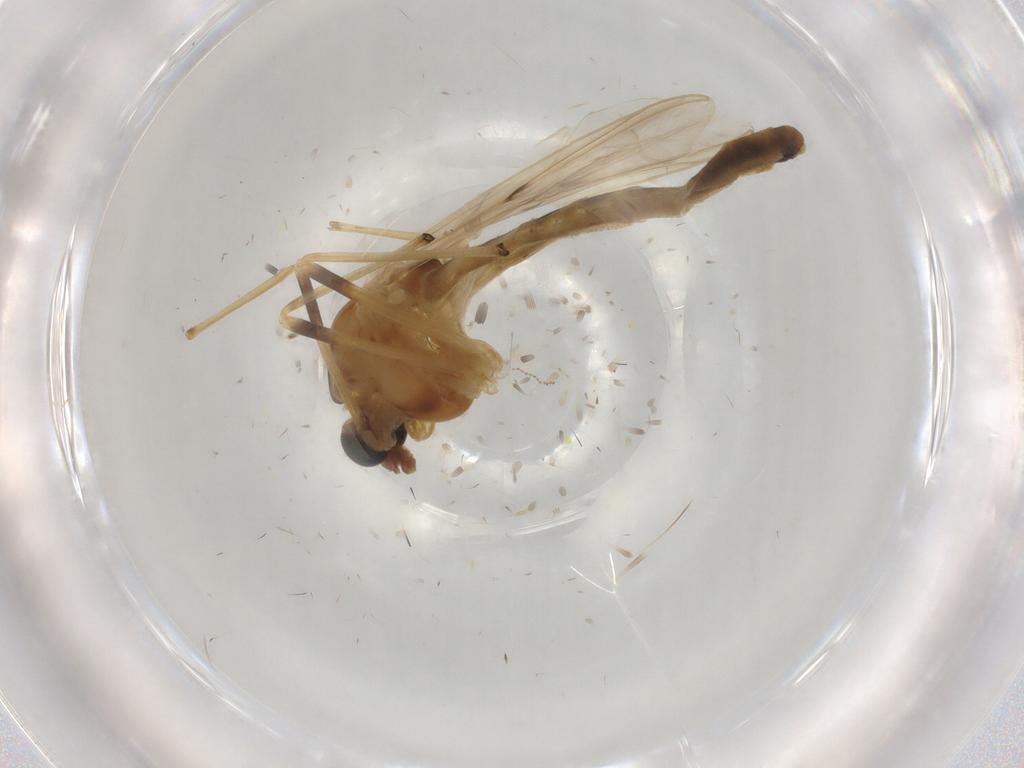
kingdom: Animalia
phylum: Arthropoda
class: Insecta
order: Diptera
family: Cecidomyiidae
